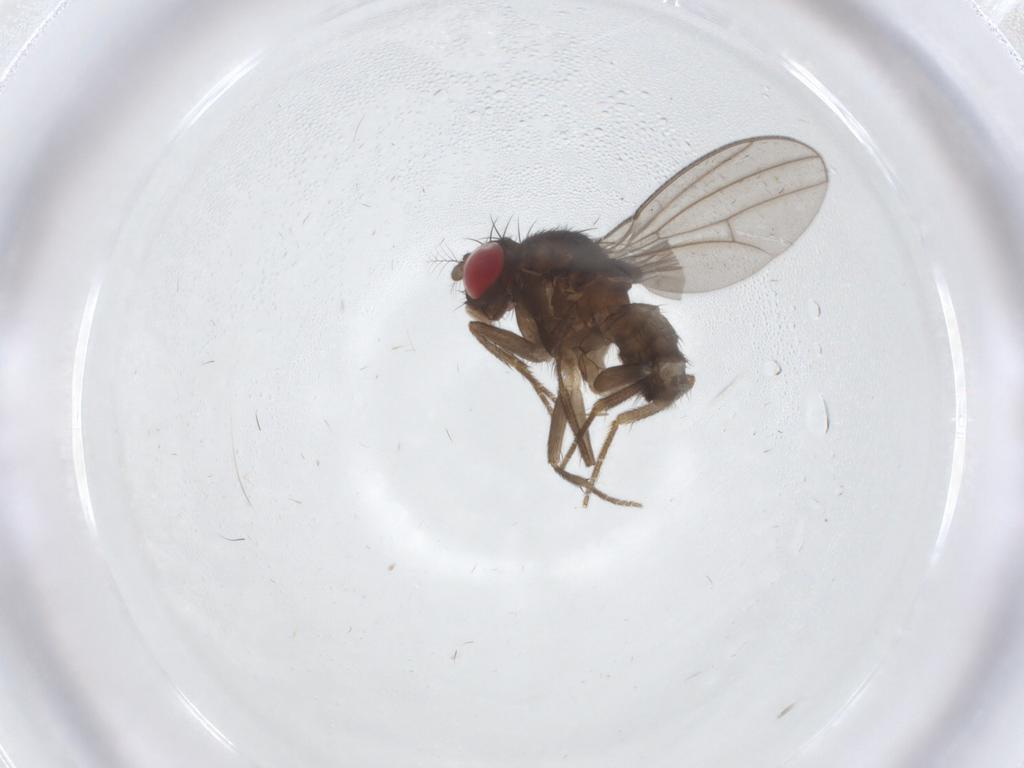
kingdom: Animalia
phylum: Arthropoda
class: Insecta
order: Diptera
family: Drosophilidae
